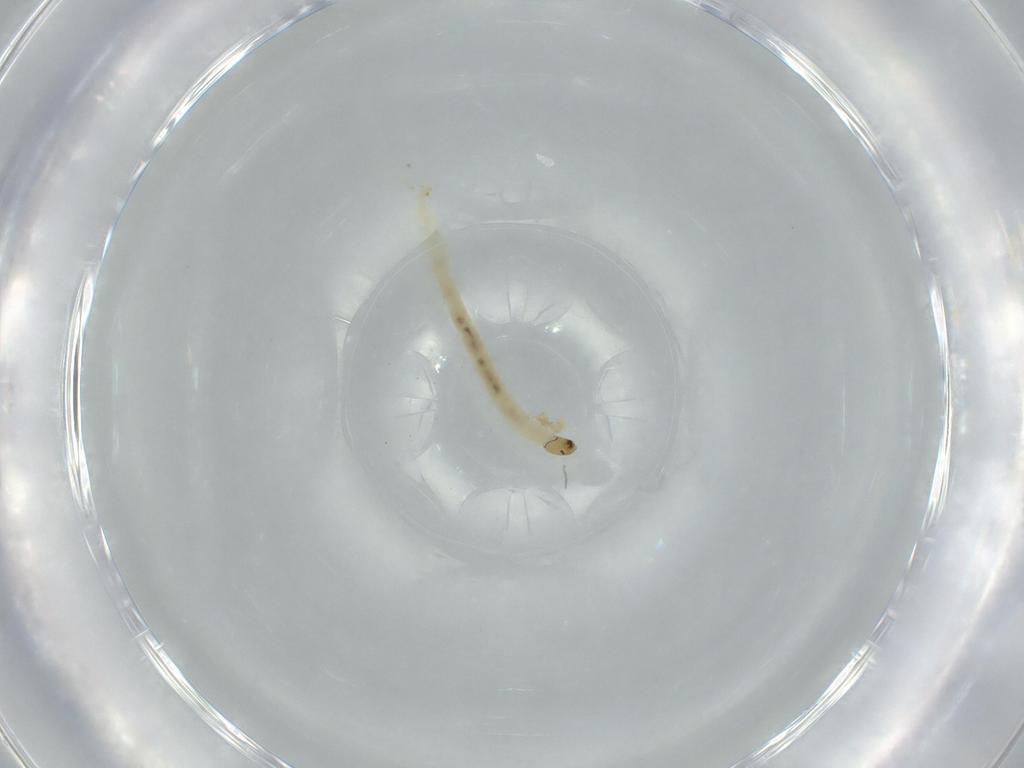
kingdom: Animalia
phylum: Arthropoda
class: Insecta
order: Diptera
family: Chironomidae
